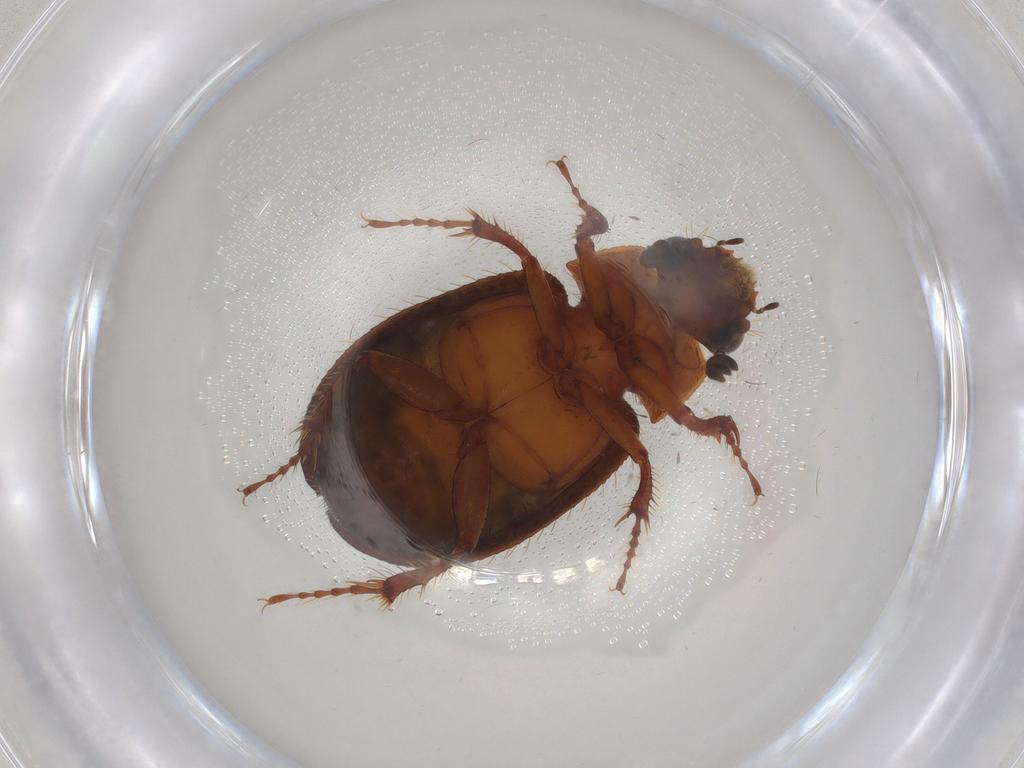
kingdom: Animalia
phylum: Arthropoda
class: Insecta
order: Coleoptera
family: Hybosoridae
